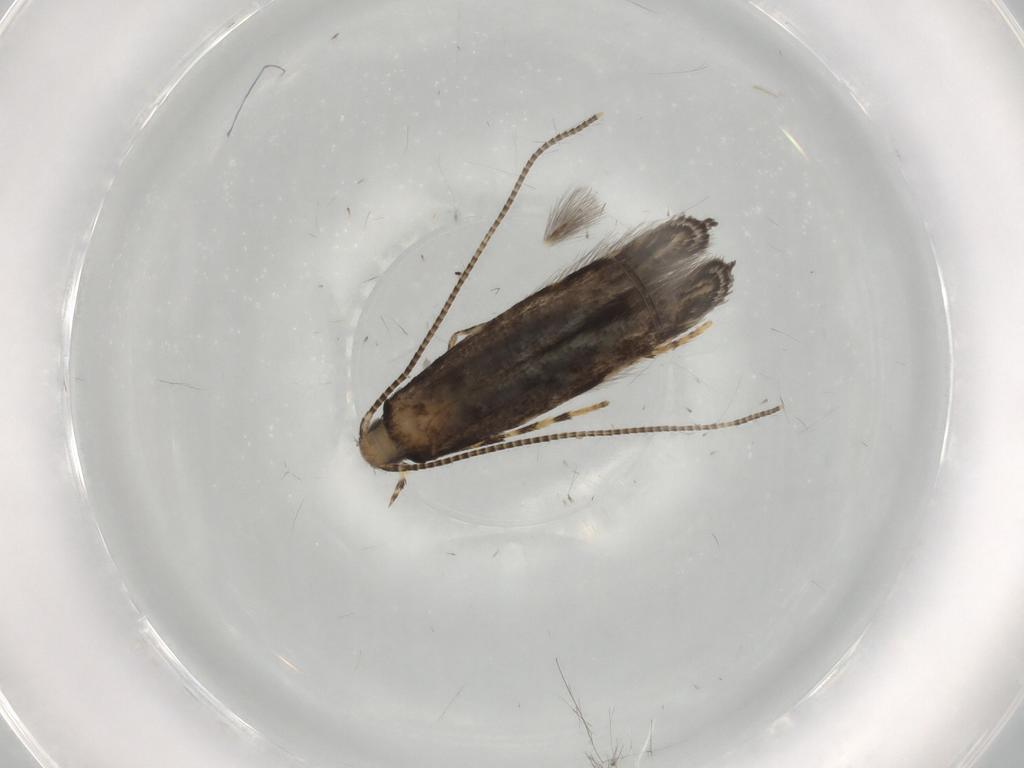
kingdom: Animalia
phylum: Arthropoda
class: Insecta
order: Lepidoptera
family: Gracillariidae
